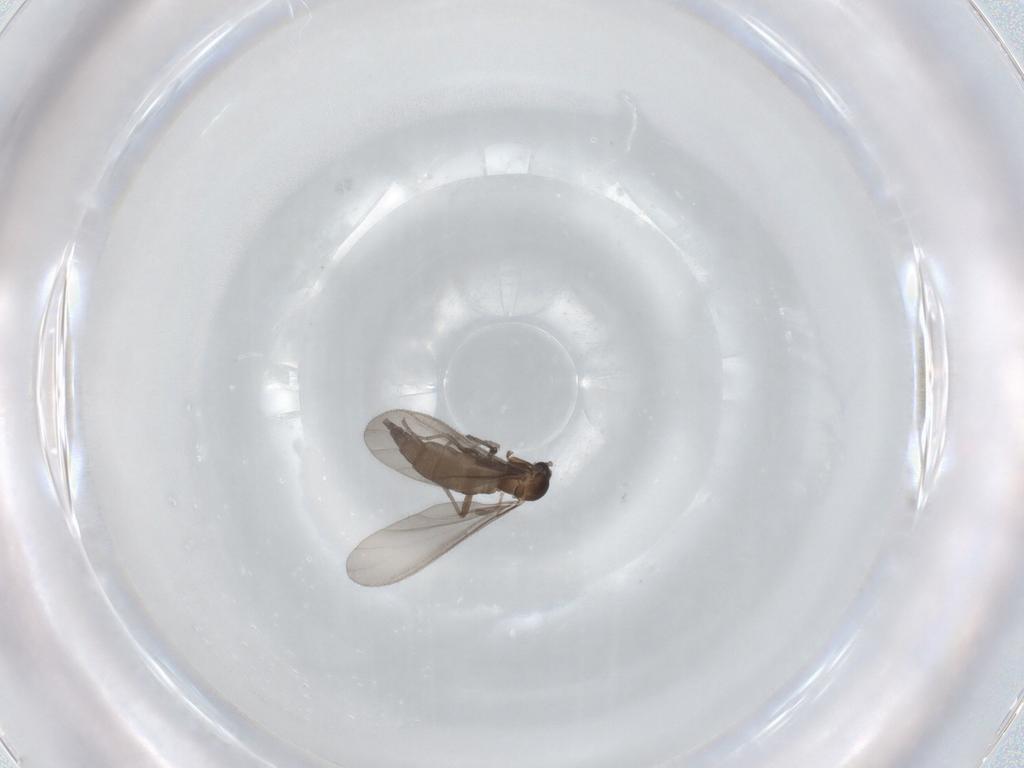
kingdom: Animalia
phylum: Arthropoda
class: Insecta
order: Diptera
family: Sciaridae
